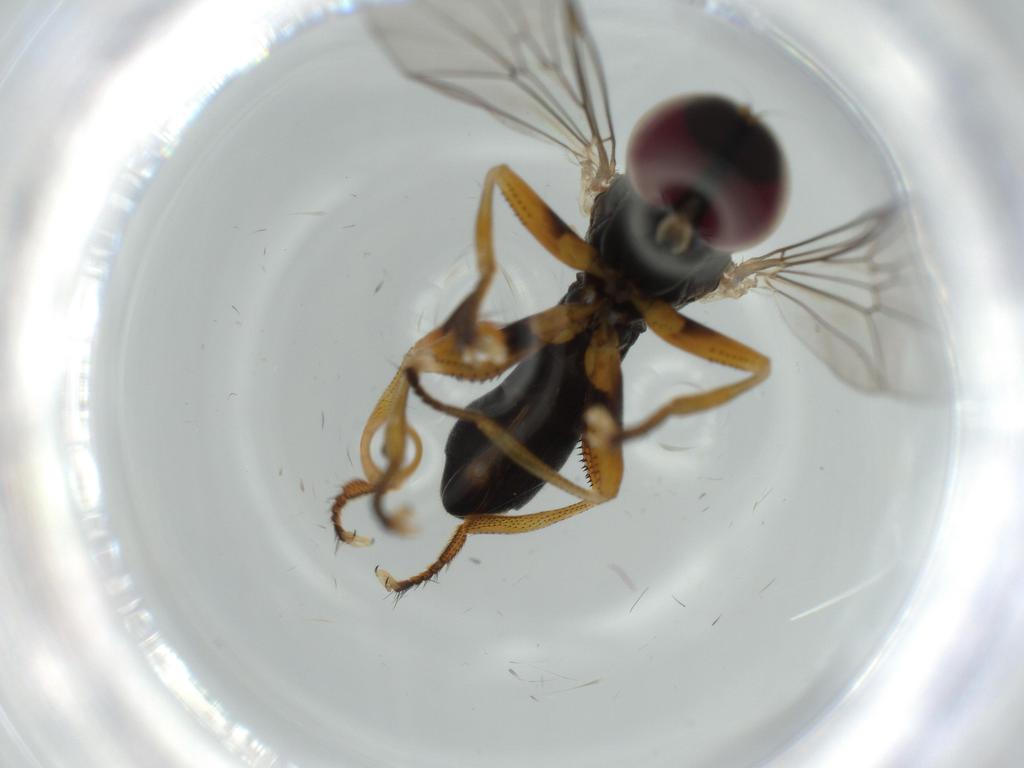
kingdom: Animalia
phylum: Arthropoda
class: Insecta
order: Diptera
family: Pipunculidae
